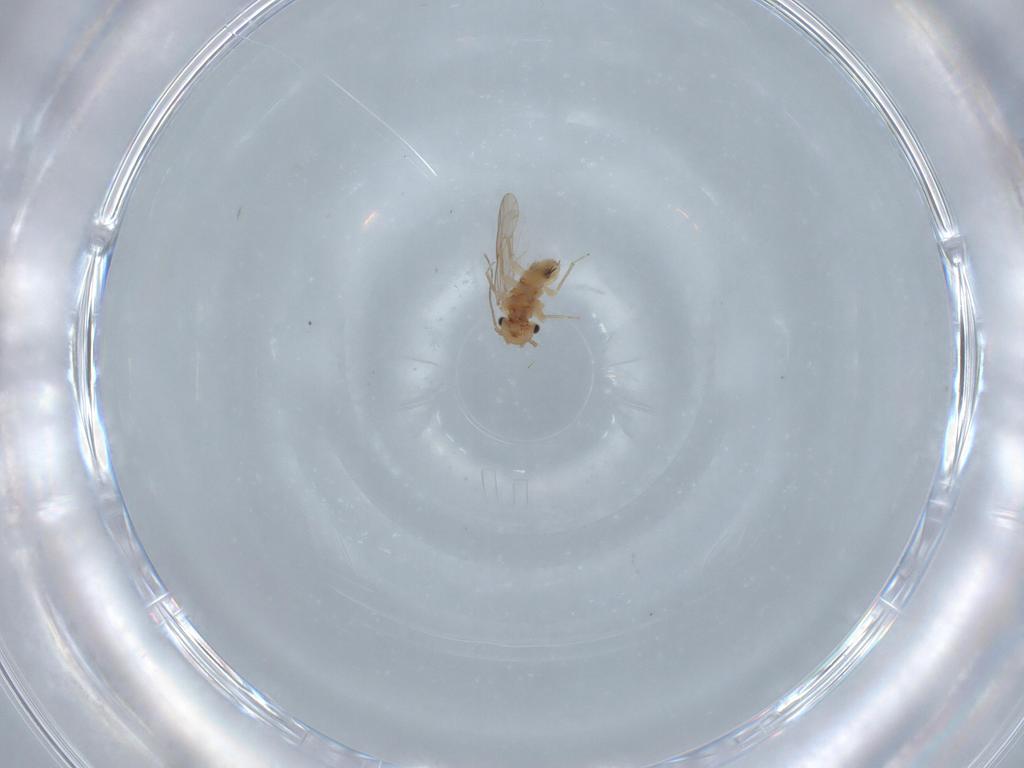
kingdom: Animalia
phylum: Arthropoda
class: Insecta
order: Psocodea
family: Ectopsocidae
